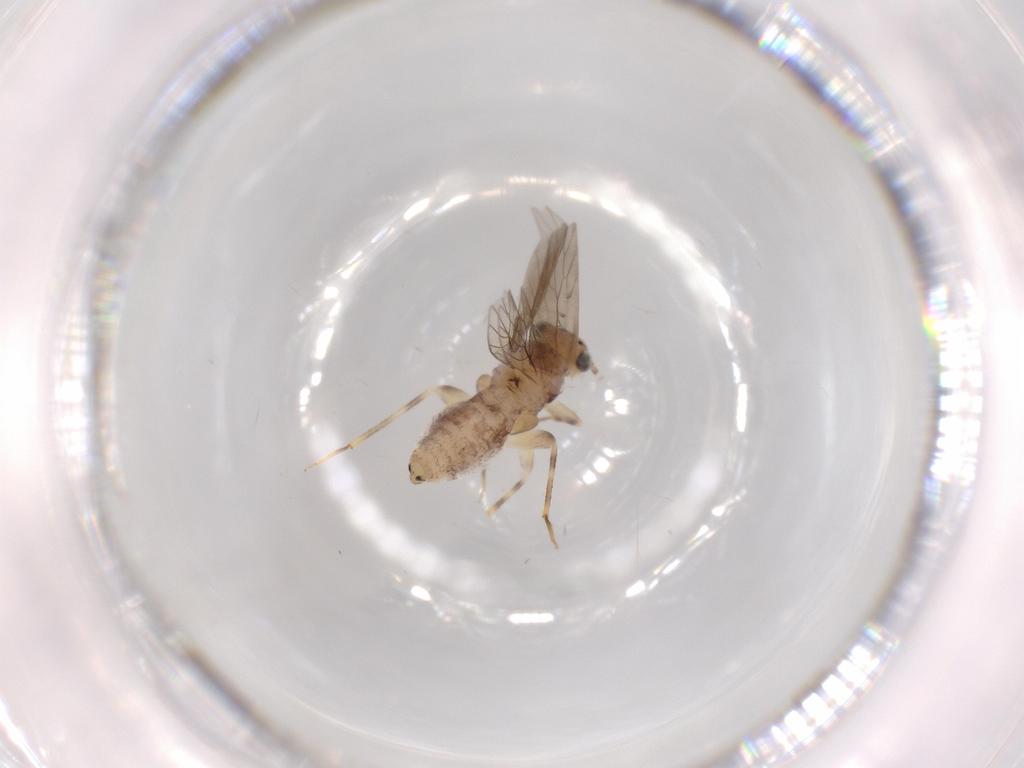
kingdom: Animalia
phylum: Arthropoda
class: Insecta
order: Psocodea
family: Lepidopsocidae
